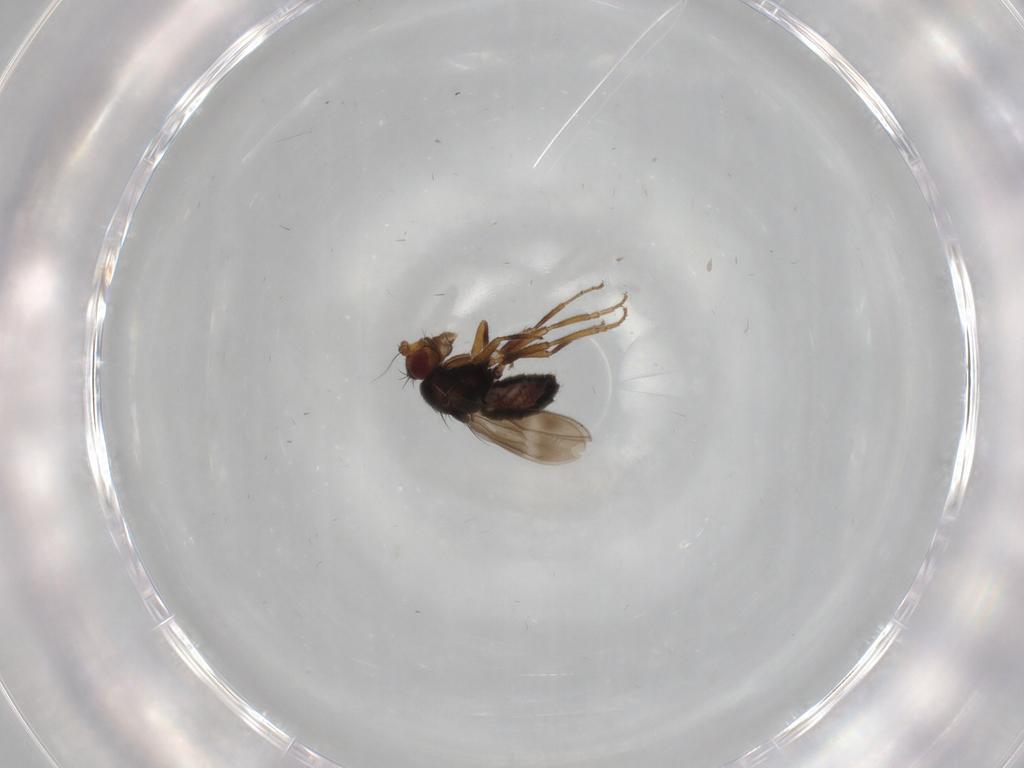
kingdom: Animalia
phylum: Arthropoda
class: Insecta
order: Diptera
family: Sphaeroceridae
